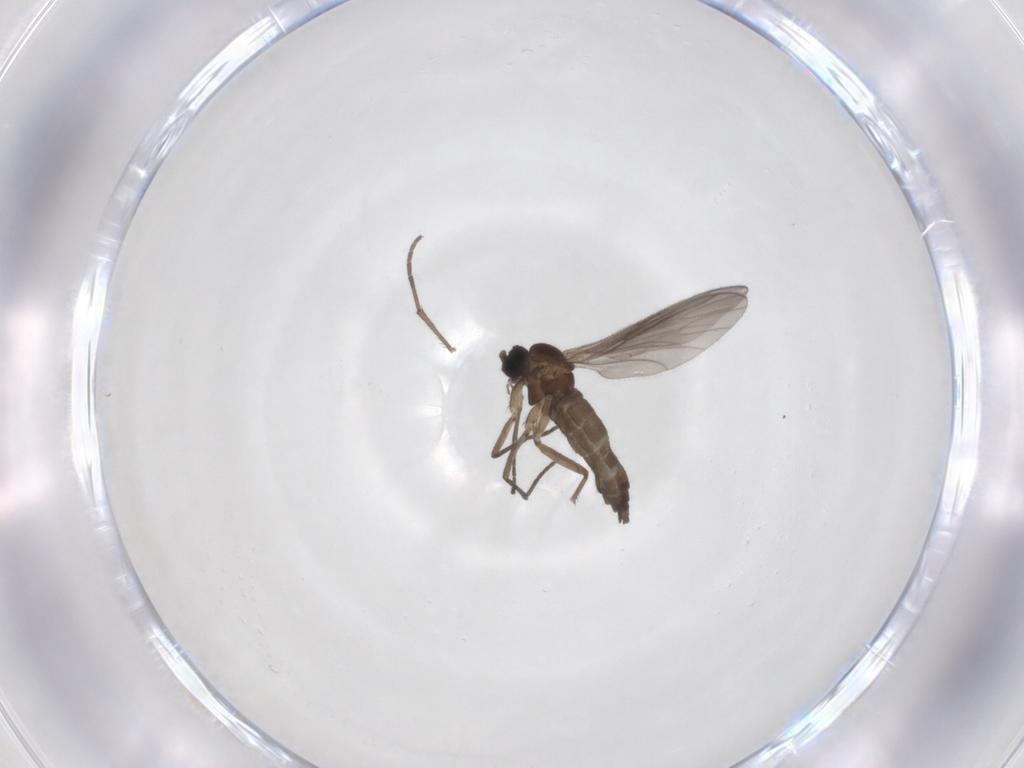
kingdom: Animalia
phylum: Arthropoda
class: Insecta
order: Diptera
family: Sciaridae
